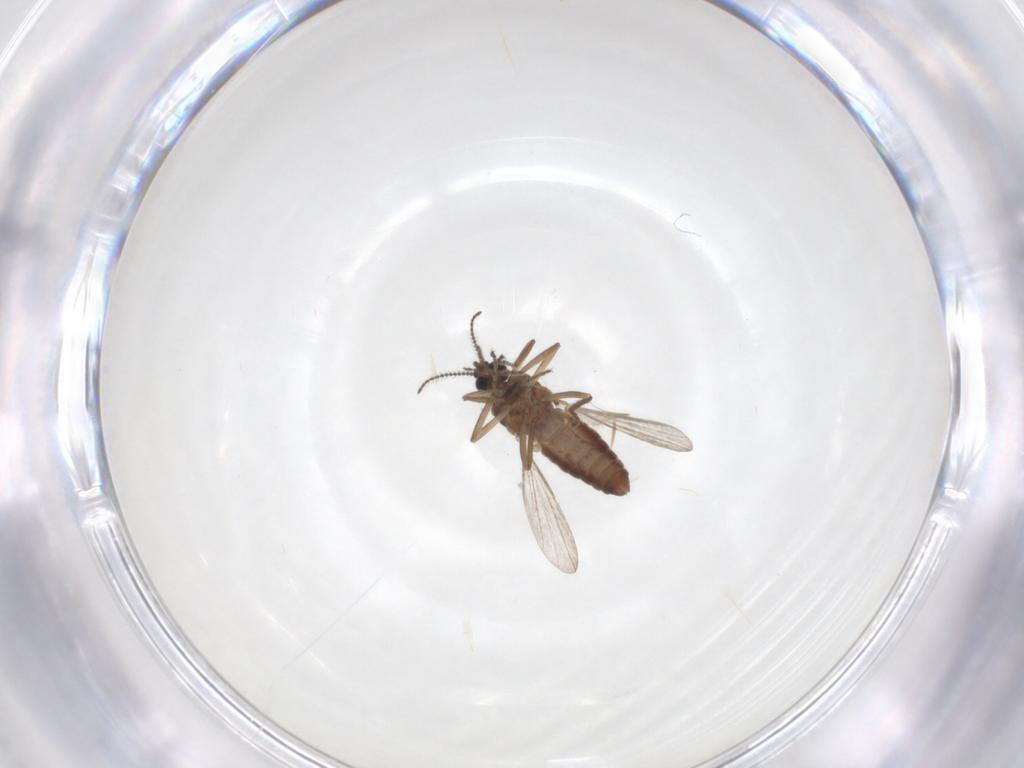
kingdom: Animalia
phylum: Arthropoda
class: Insecta
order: Diptera
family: Ceratopogonidae
